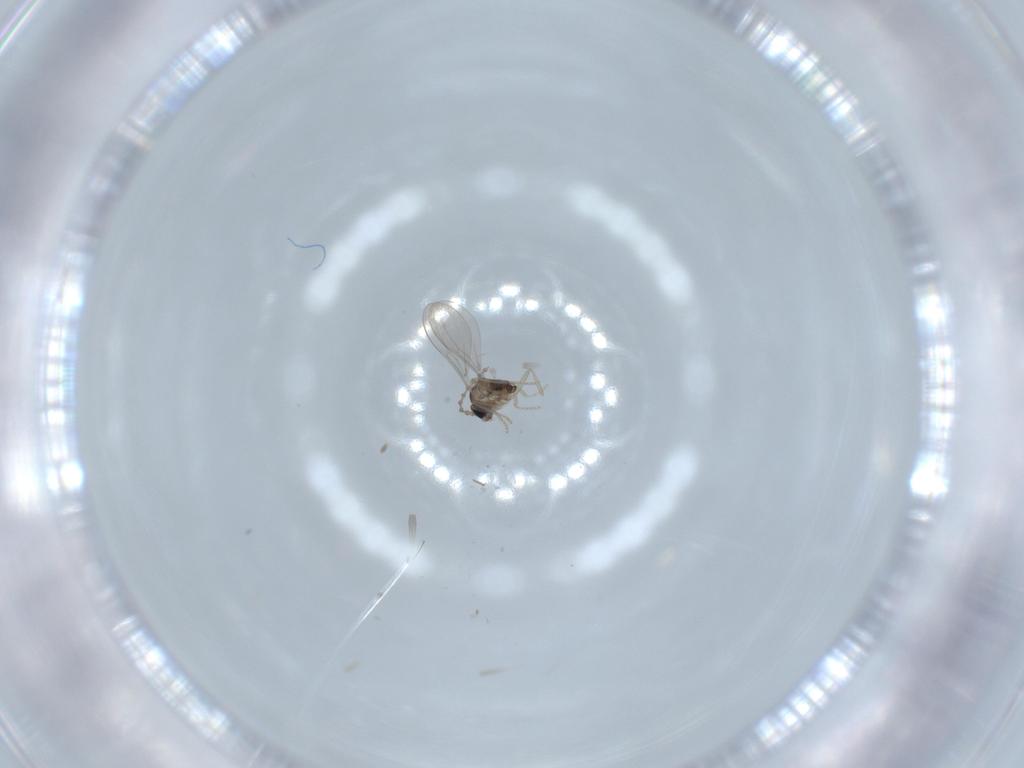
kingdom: Animalia
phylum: Arthropoda
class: Insecta
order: Diptera
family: Cecidomyiidae
